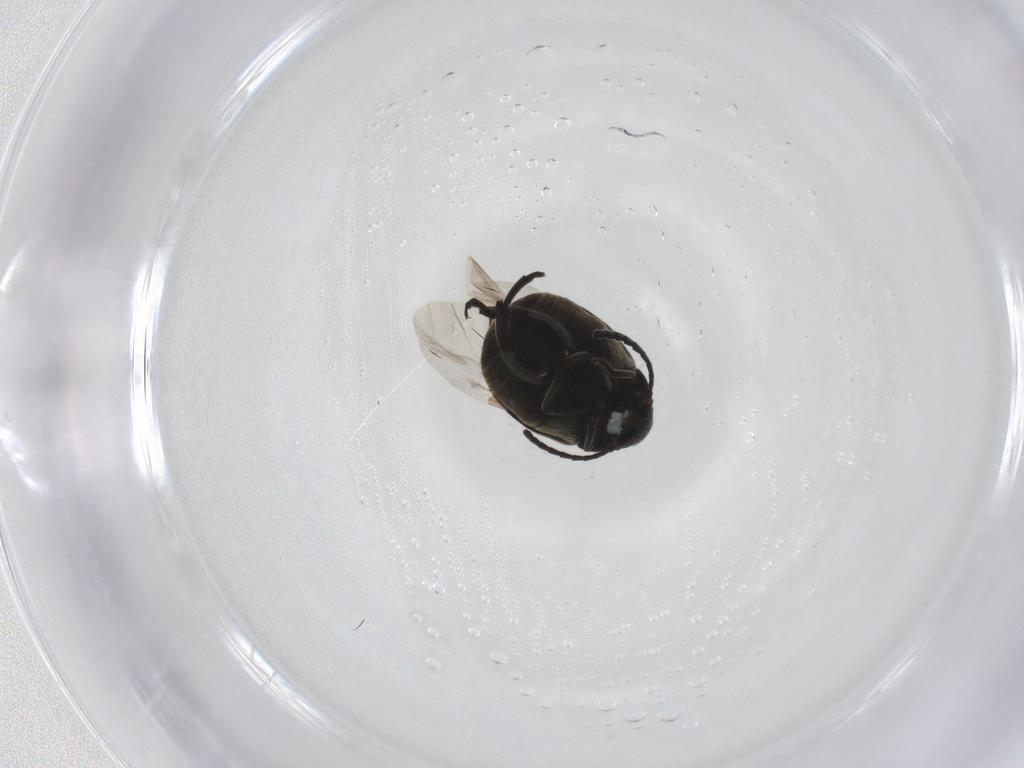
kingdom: Animalia
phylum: Arthropoda
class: Insecta
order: Coleoptera
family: Chrysomelidae
